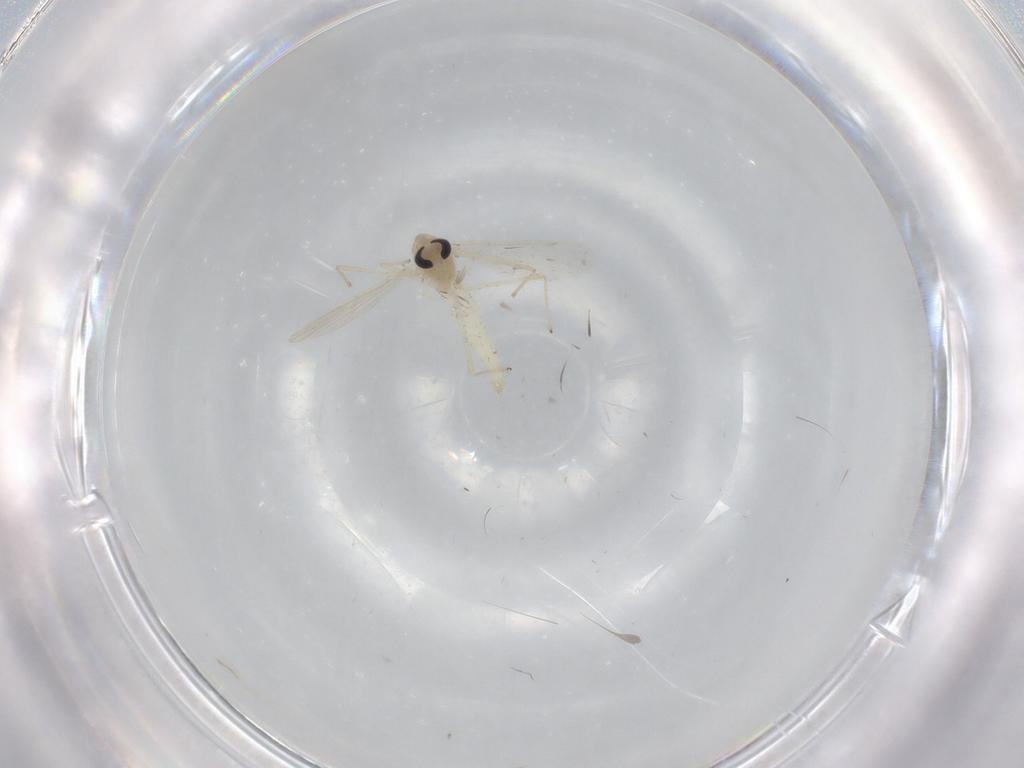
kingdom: Animalia
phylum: Arthropoda
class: Insecta
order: Diptera
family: Chironomidae
